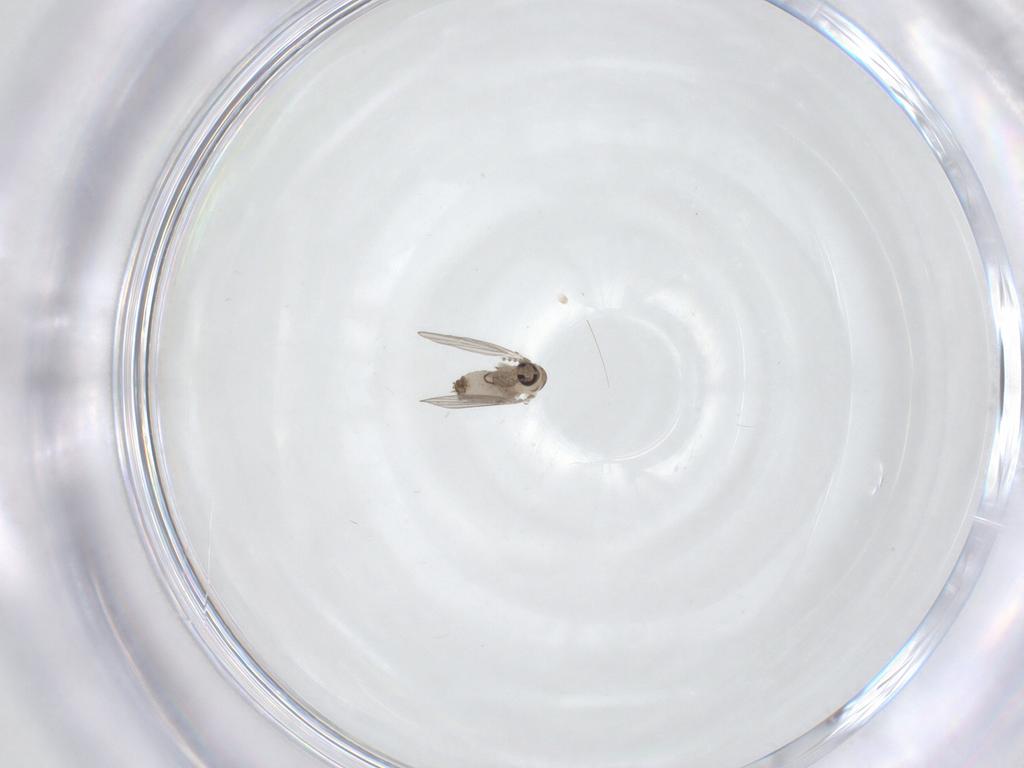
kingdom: Animalia
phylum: Arthropoda
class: Insecta
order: Diptera
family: Psychodidae
